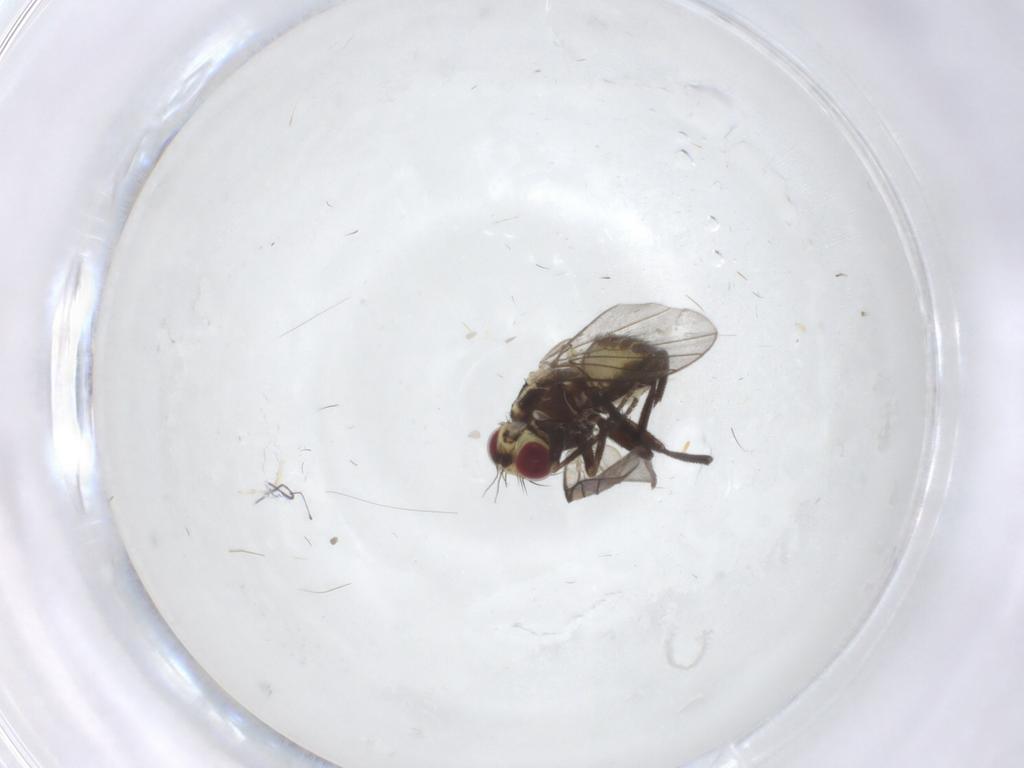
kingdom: Animalia
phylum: Arthropoda
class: Insecta
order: Diptera
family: Agromyzidae
